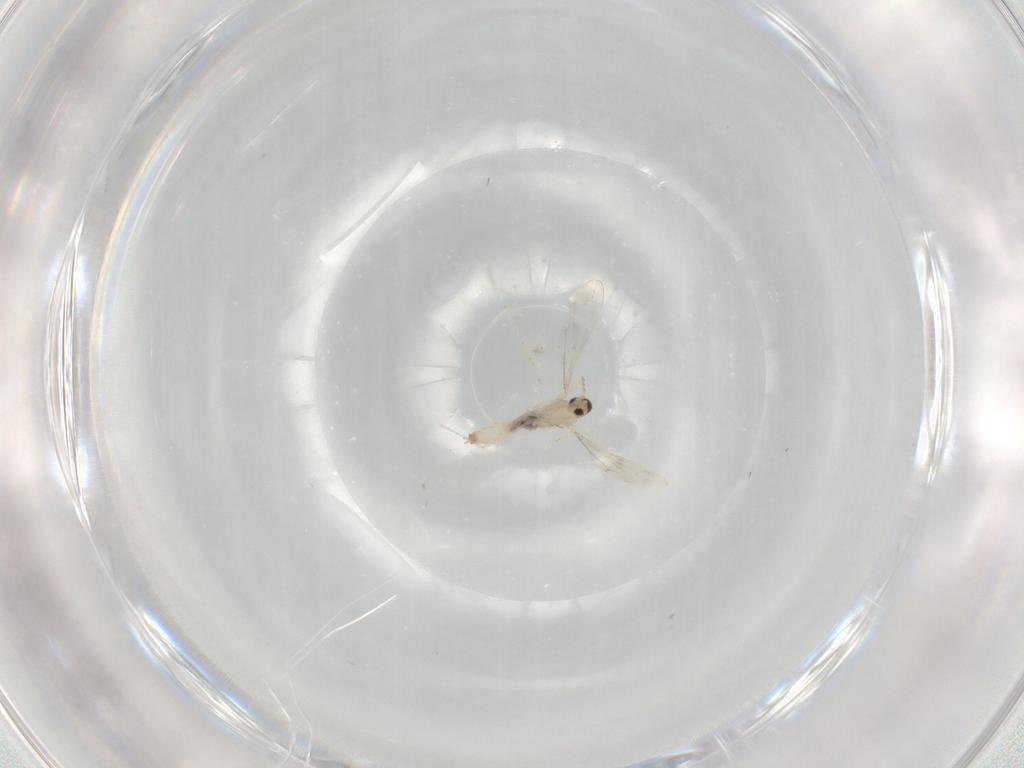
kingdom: Animalia
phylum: Arthropoda
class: Insecta
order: Diptera
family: Cecidomyiidae
